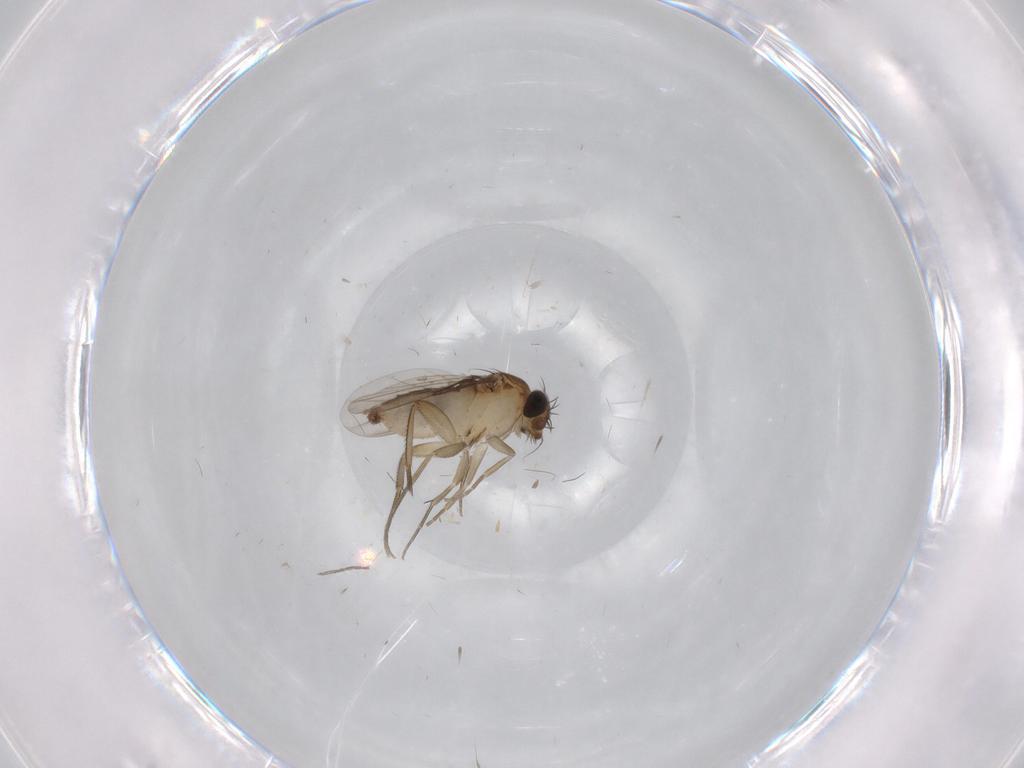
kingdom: Animalia
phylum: Arthropoda
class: Insecta
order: Diptera
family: Phoridae
